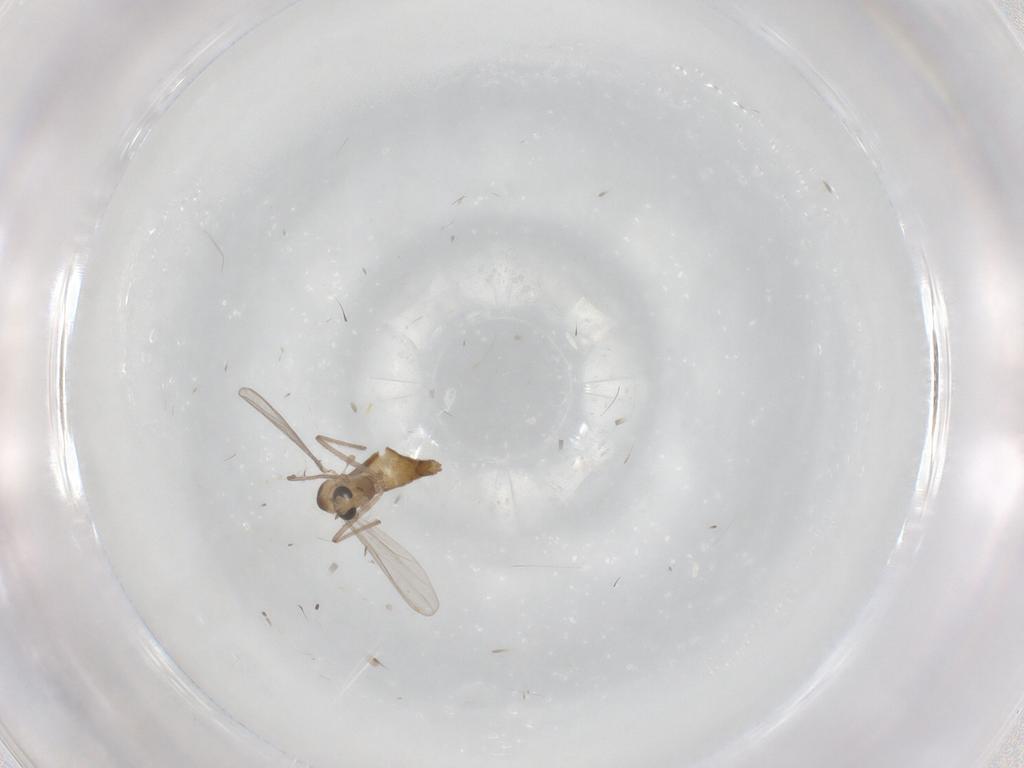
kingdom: Animalia
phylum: Arthropoda
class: Insecta
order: Diptera
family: Chironomidae
